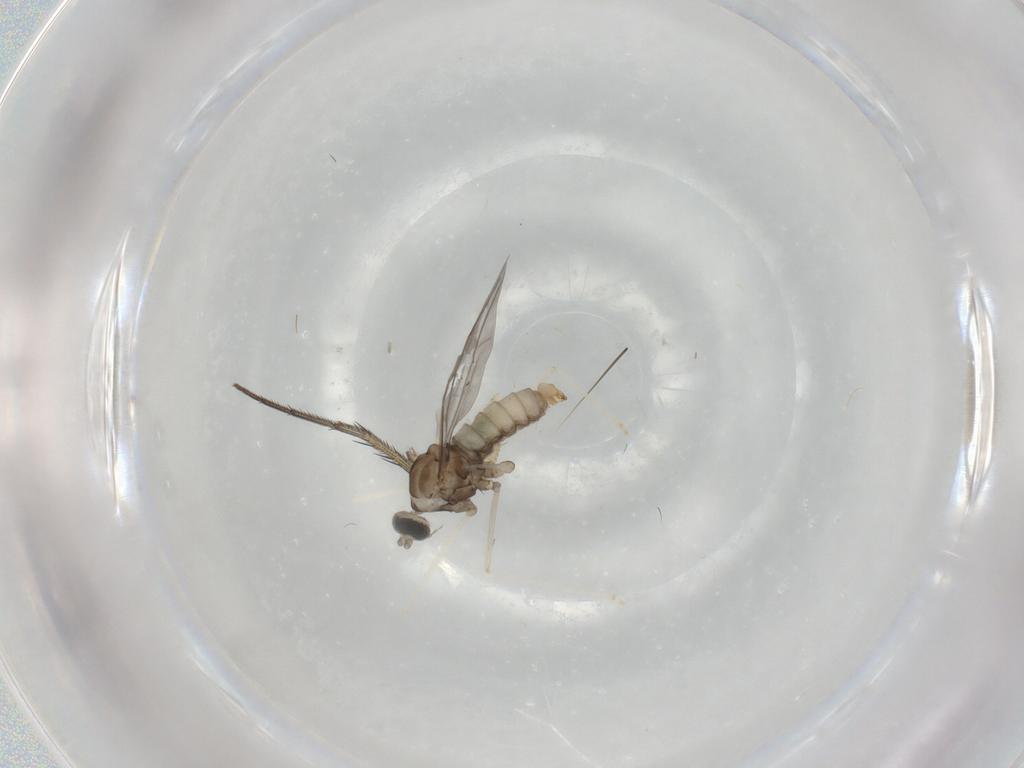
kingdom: Animalia
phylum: Arthropoda
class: Insecta
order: Diptera
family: Cecidomyiidae
